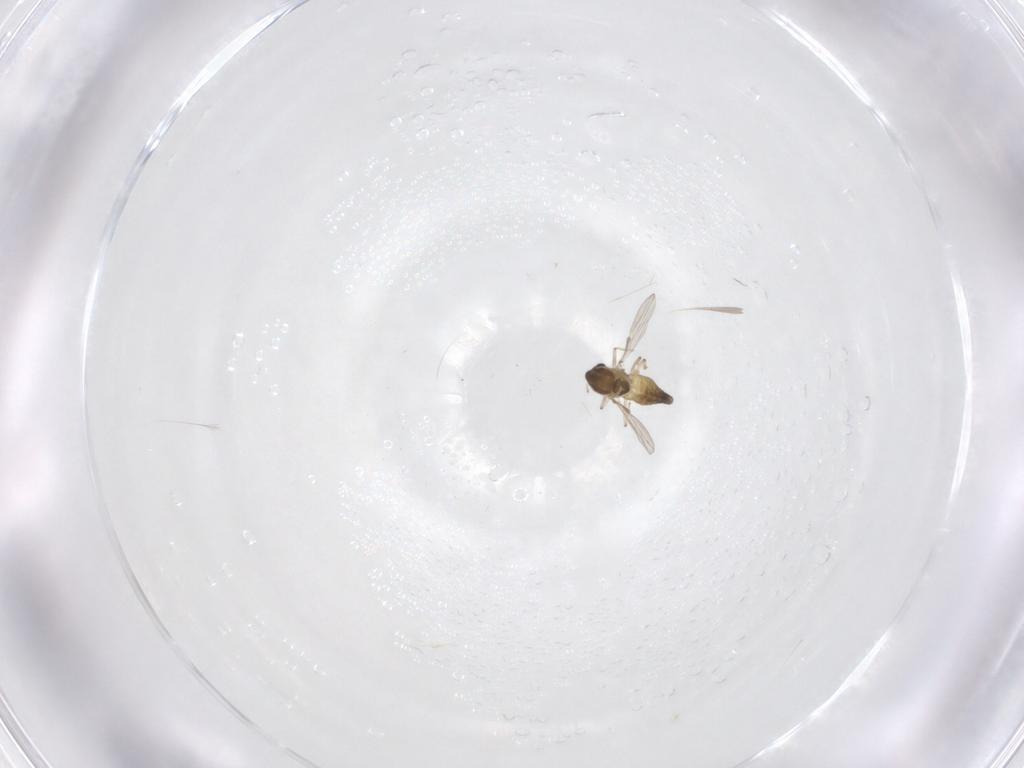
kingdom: Animalia
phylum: Arthropoda
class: Insecta
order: Diptera
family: Chironomidae
